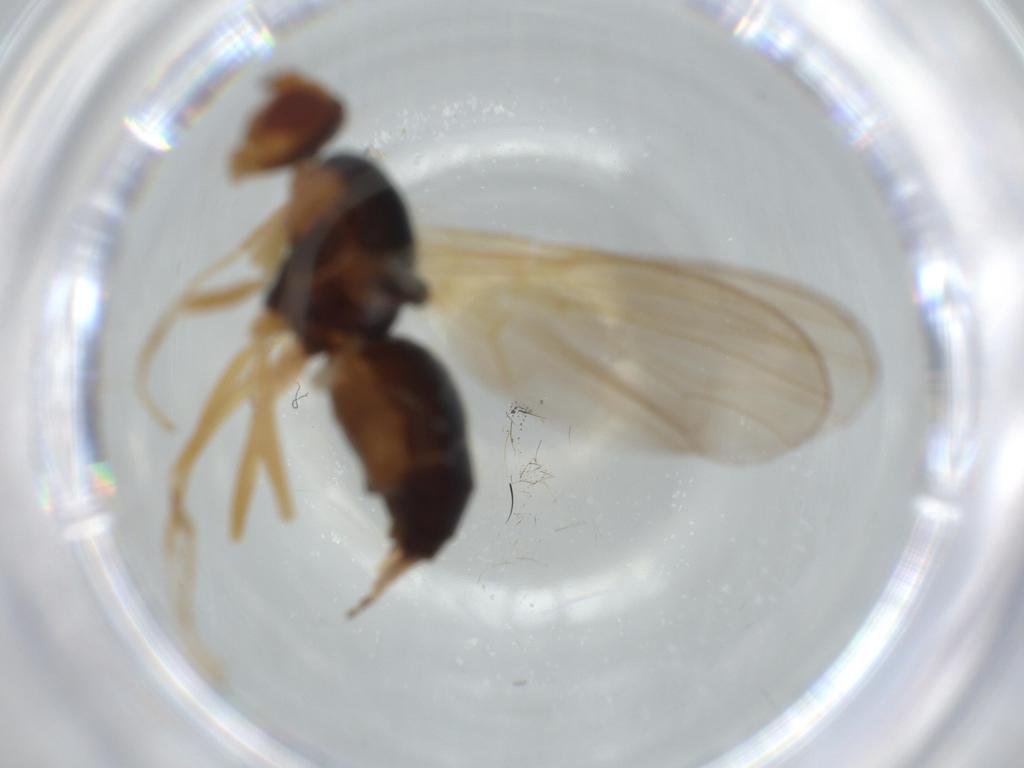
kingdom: Animalia
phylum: Arthropoda
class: Insecta
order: Diptera
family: Psilidae
